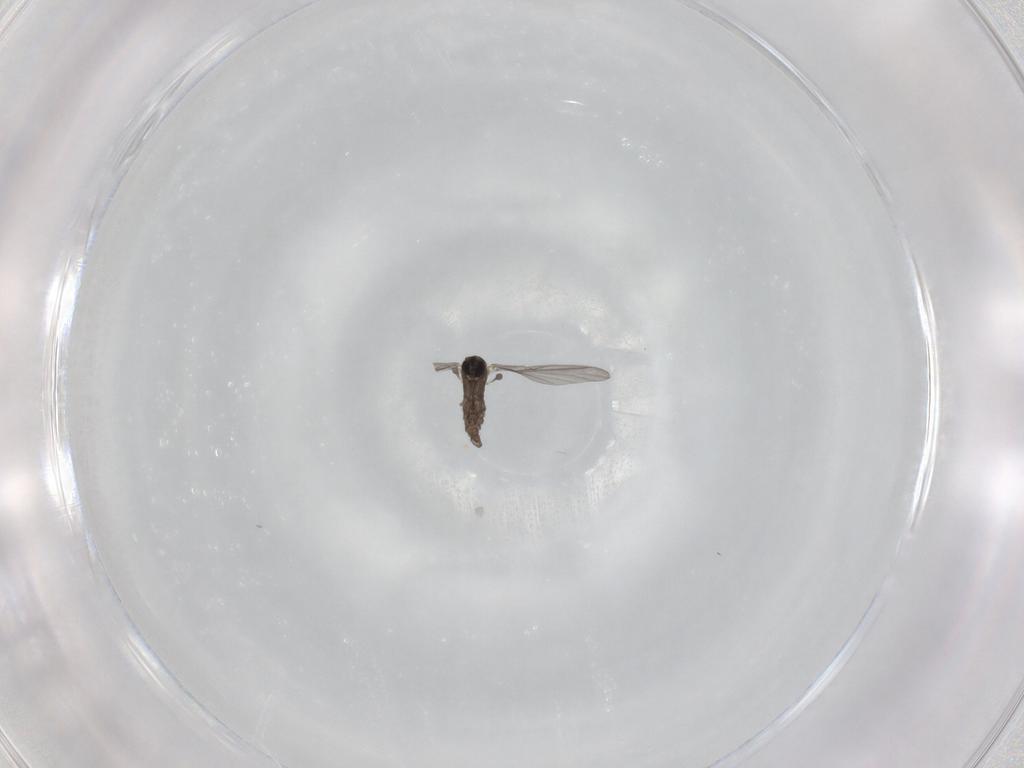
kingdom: Animalia
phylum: Arthropoda
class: Insecta
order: Diptera
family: Sciaridae
